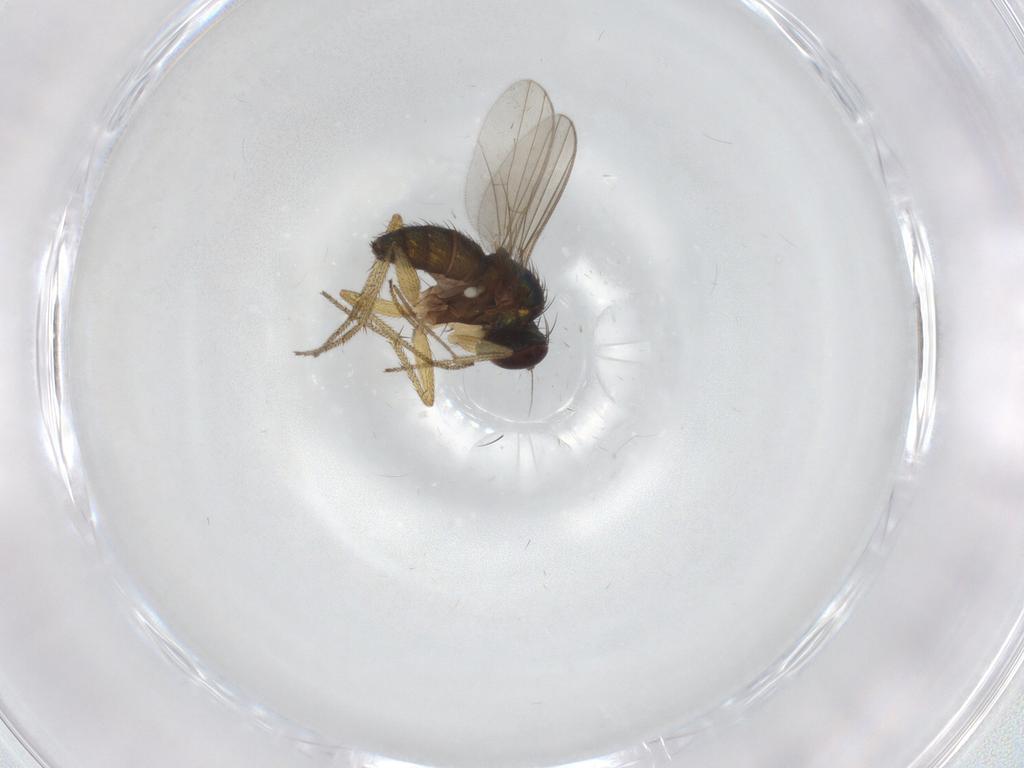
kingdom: Animalia
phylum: Arthropoda
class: Insecta
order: Diptera
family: Dolichopodidae
